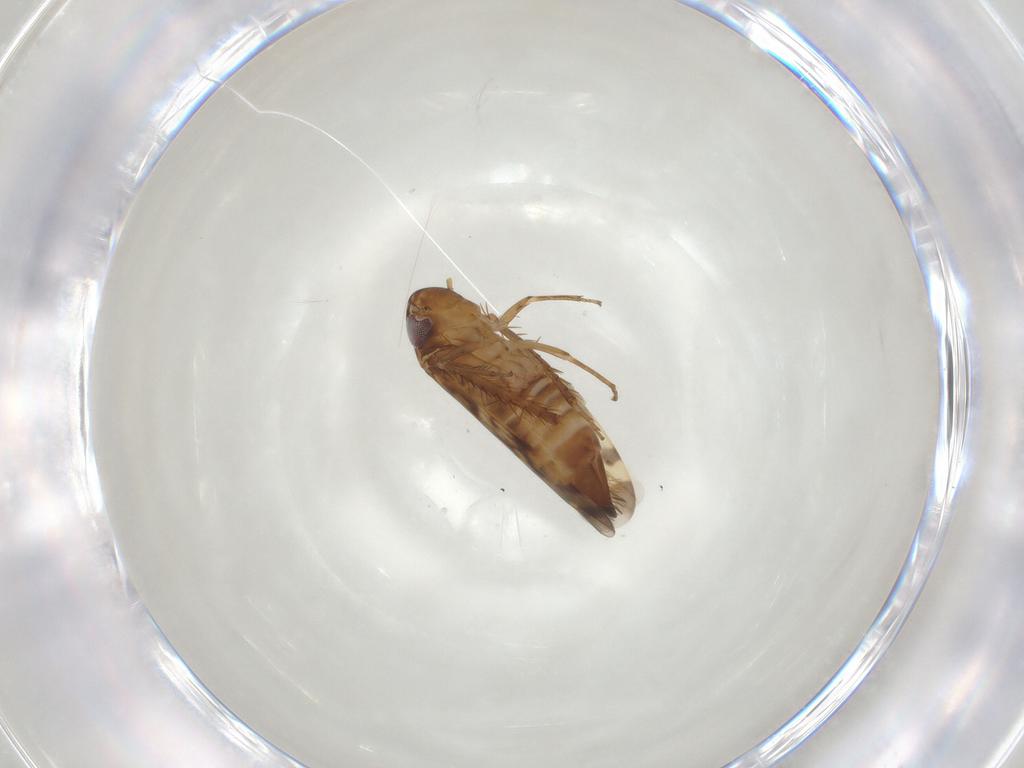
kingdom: Animalia
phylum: Arthropoda
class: Insecta
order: Hemiptera
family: Cicadellidae
